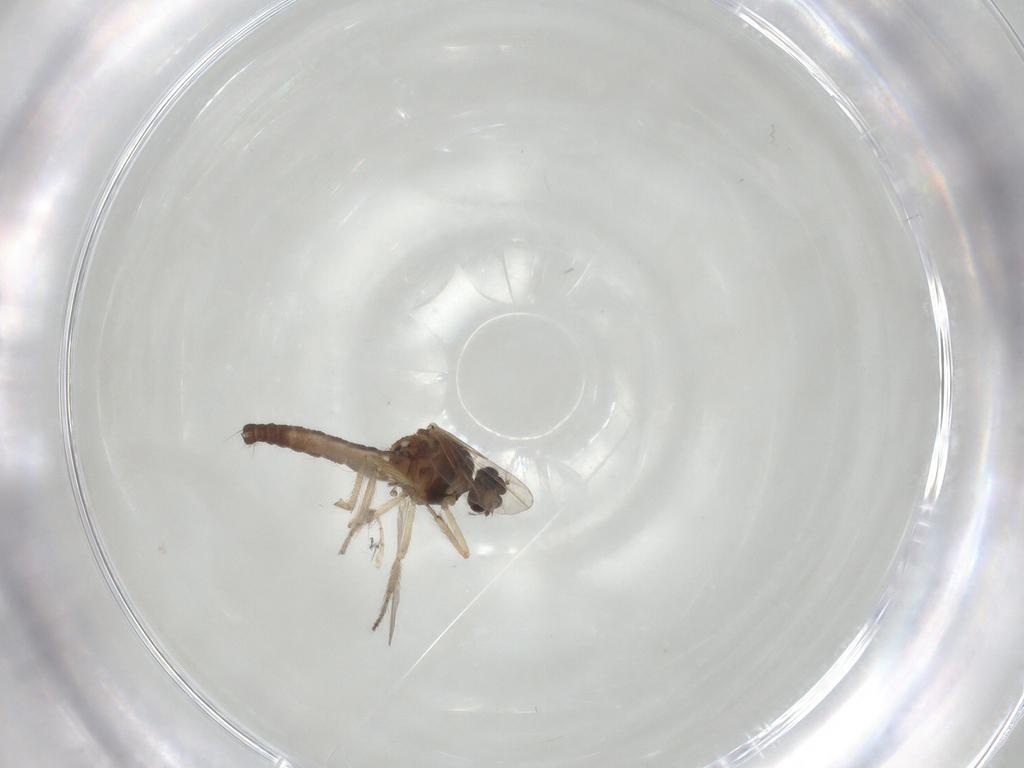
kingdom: Animalia
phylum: Arthropoda
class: Insecta
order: Diptera
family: Ceratopogonidae
